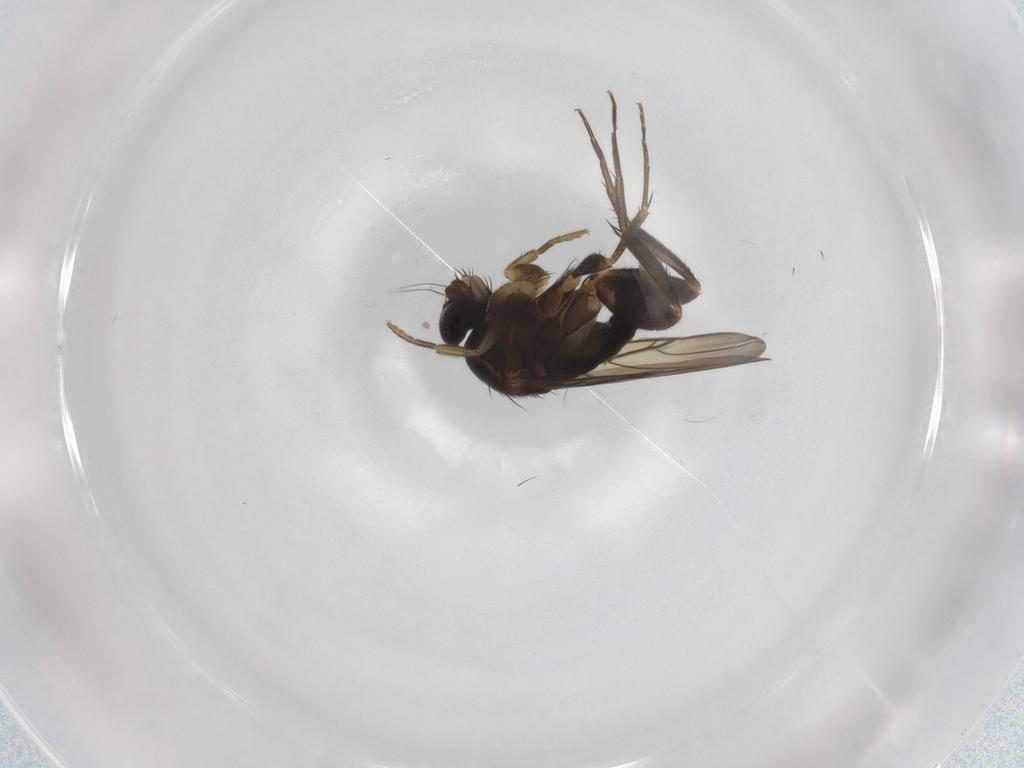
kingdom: Animalia
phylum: Arthropoda
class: Insecta
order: Diptera
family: Phoridae
